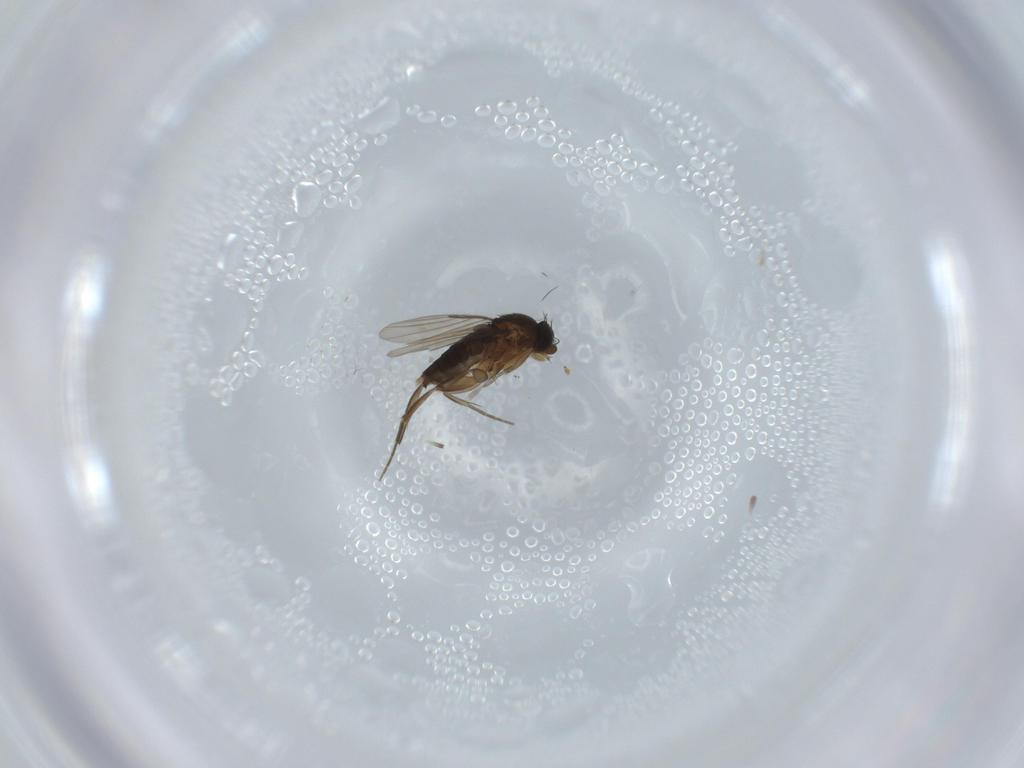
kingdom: Animalia
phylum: Arthropoda
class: Insecta
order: Diptera
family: Phoridae
